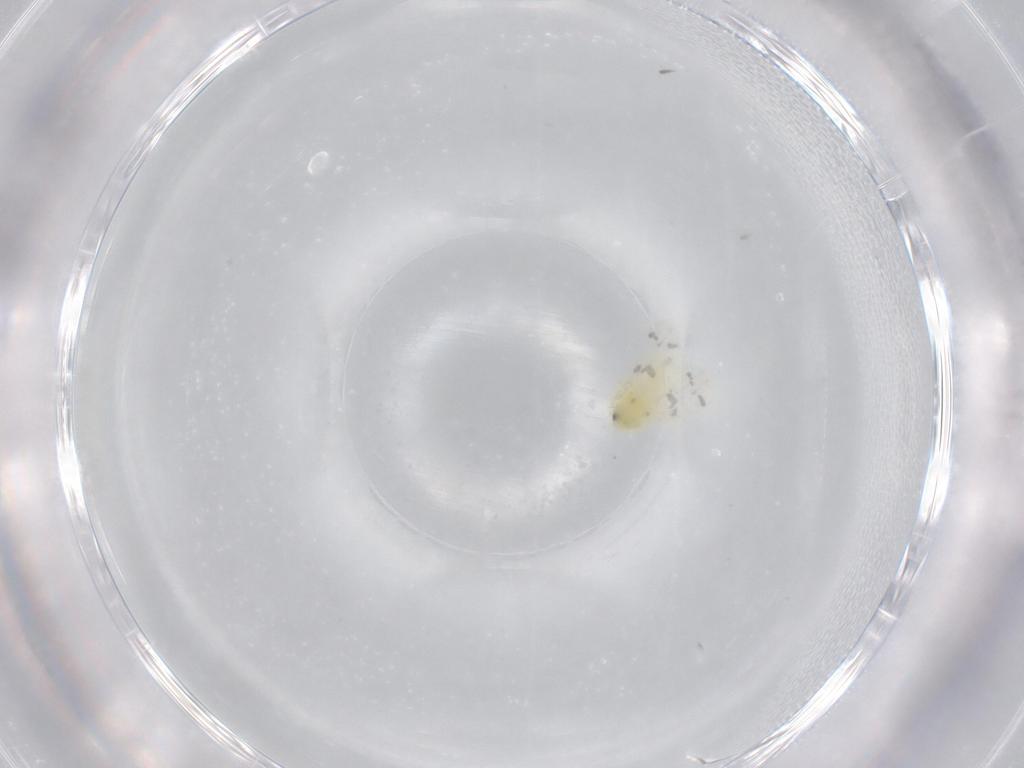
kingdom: Animalia
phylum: Arthropoda
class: Insecta
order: Hemiptera
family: Aleyrodidae
